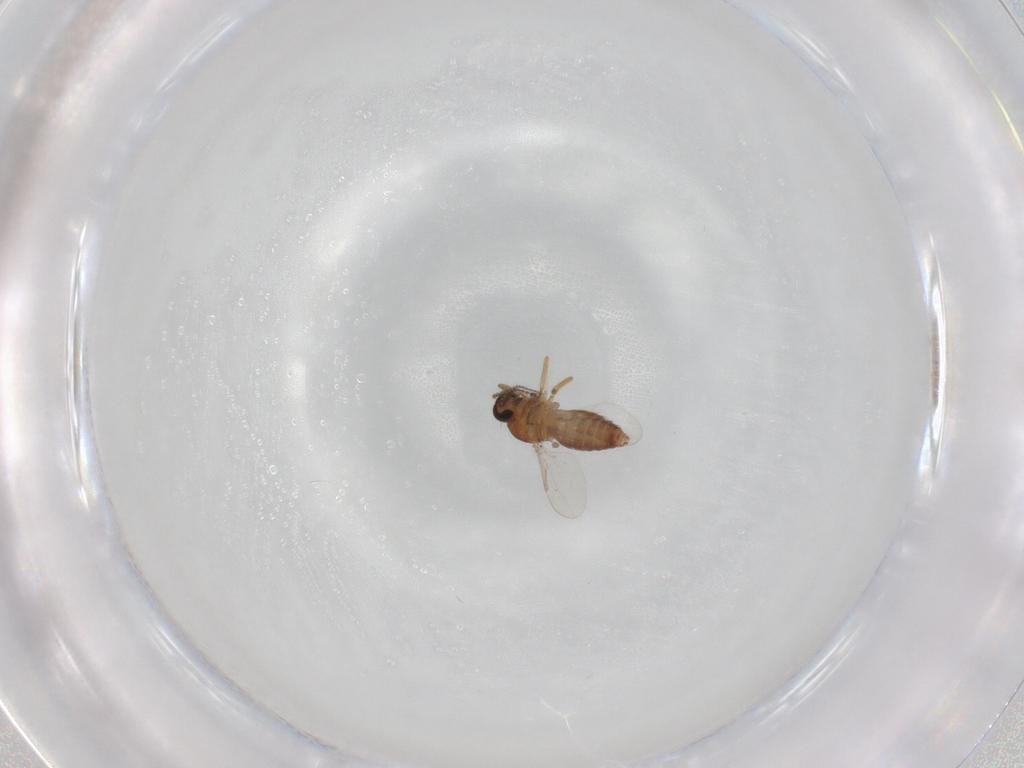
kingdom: Animalia
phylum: Arthropoda
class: Insecta
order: Diptera
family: Ceratopogonidae
